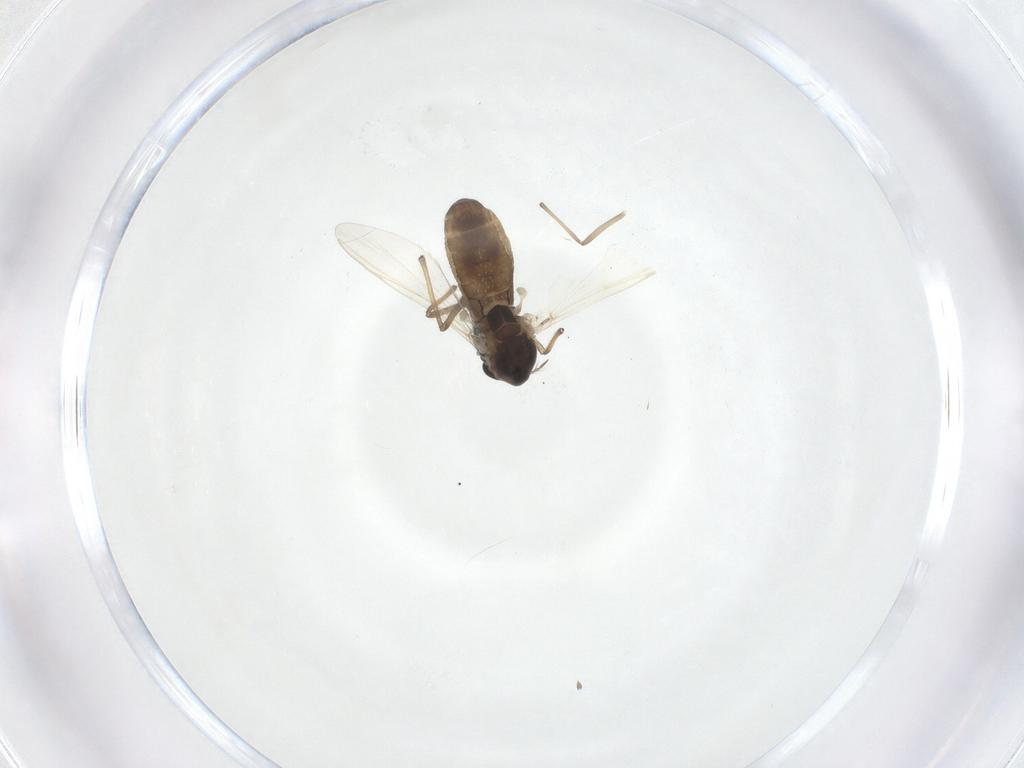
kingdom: Animalia
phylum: Arthropoda
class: Insecta
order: Diptera
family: Chironomidae
